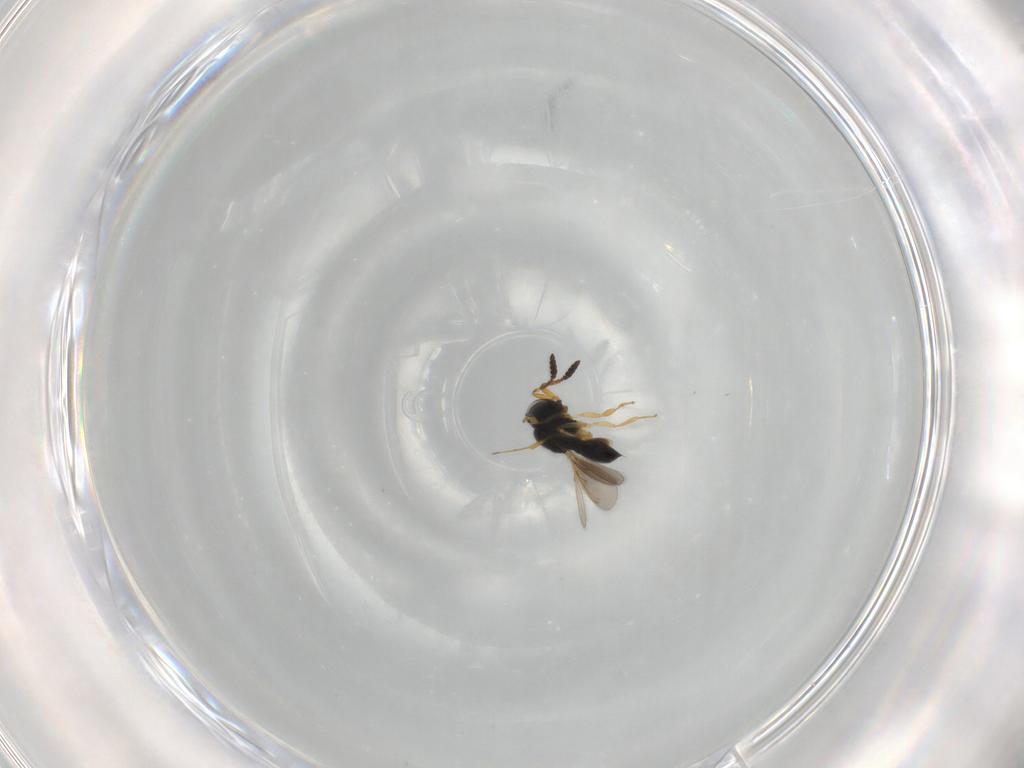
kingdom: Animalia
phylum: Arthropoda
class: Insecta
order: Hymenoptera
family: Scelionidae
